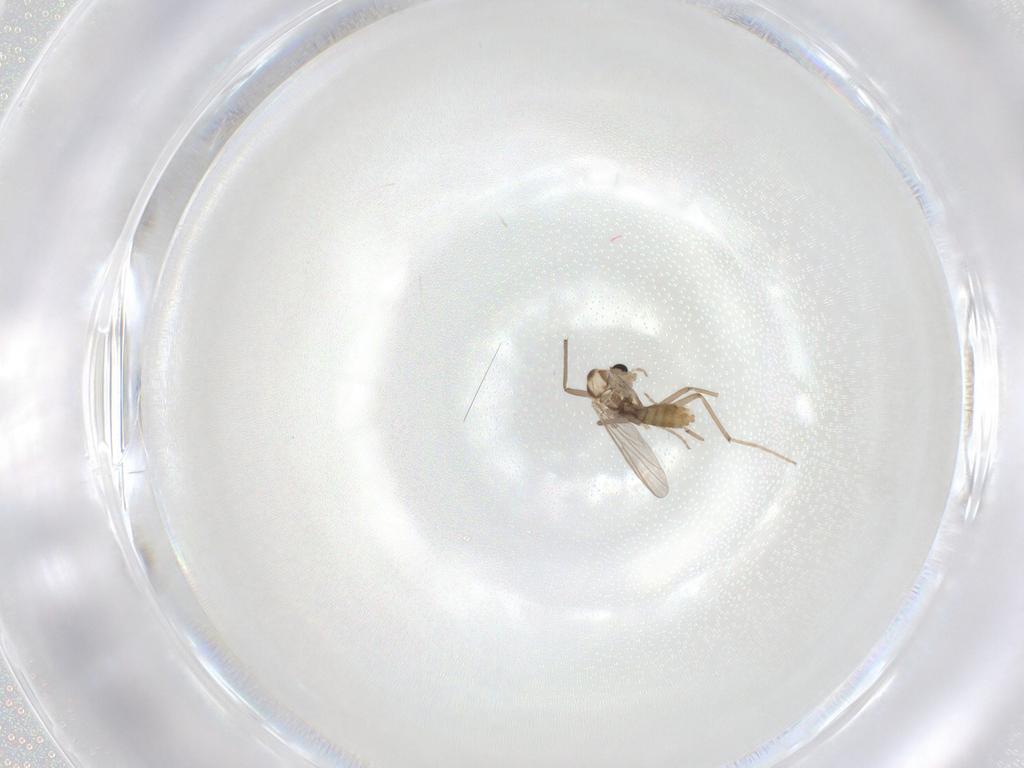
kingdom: Animalia
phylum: Arthropoda
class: Insecta
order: Diptera
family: Chironomidae
